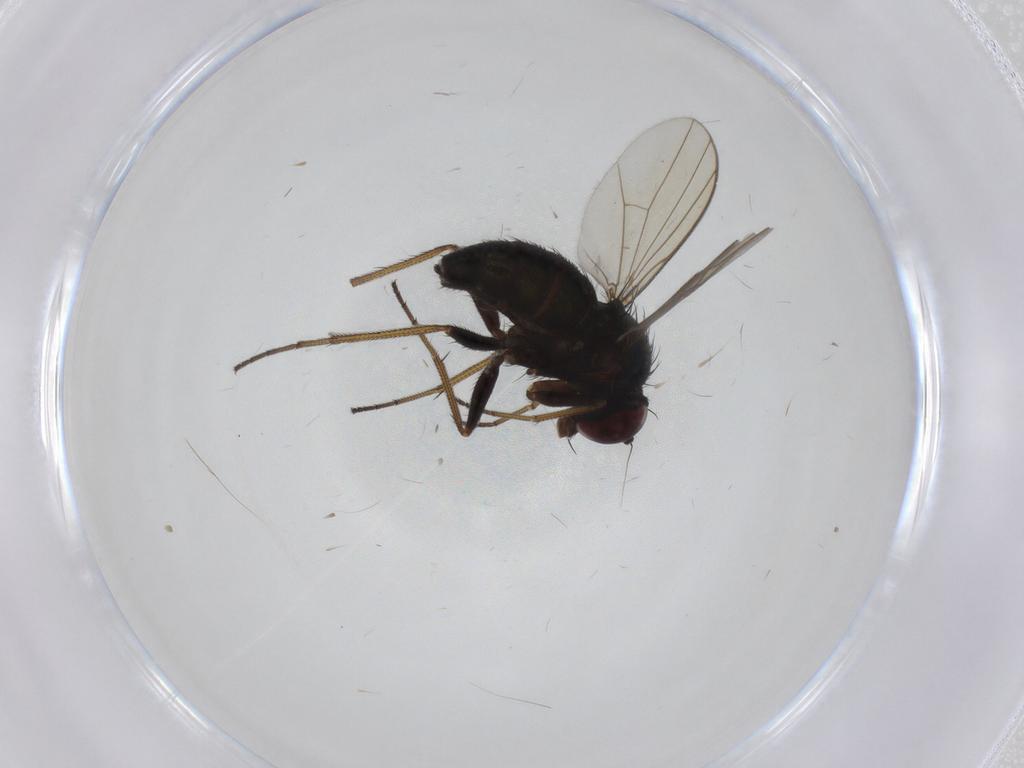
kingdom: Animalia
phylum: Arthropoda
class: Insecta
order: Diptera
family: Dolichopodidae
